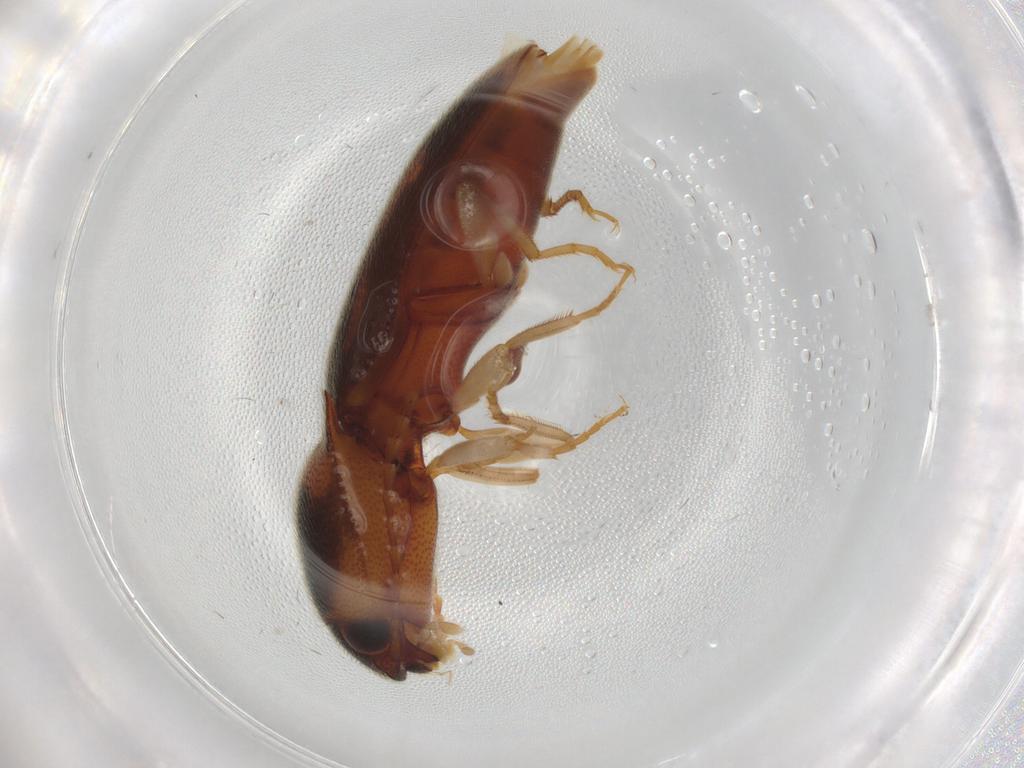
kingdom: Animalia
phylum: Arthropoda
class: Insecta
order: Coleoptera
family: Elateridae
